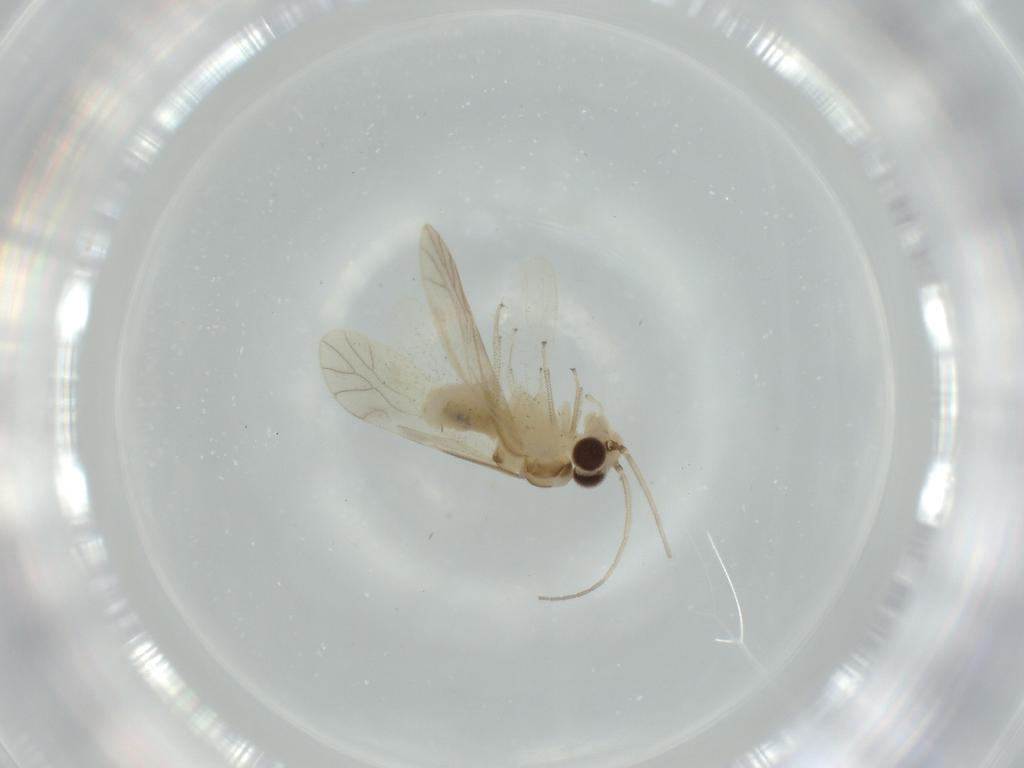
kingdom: Animalia
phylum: Arthropoda
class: Insecta
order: Psocodea
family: Caeciliusidae
